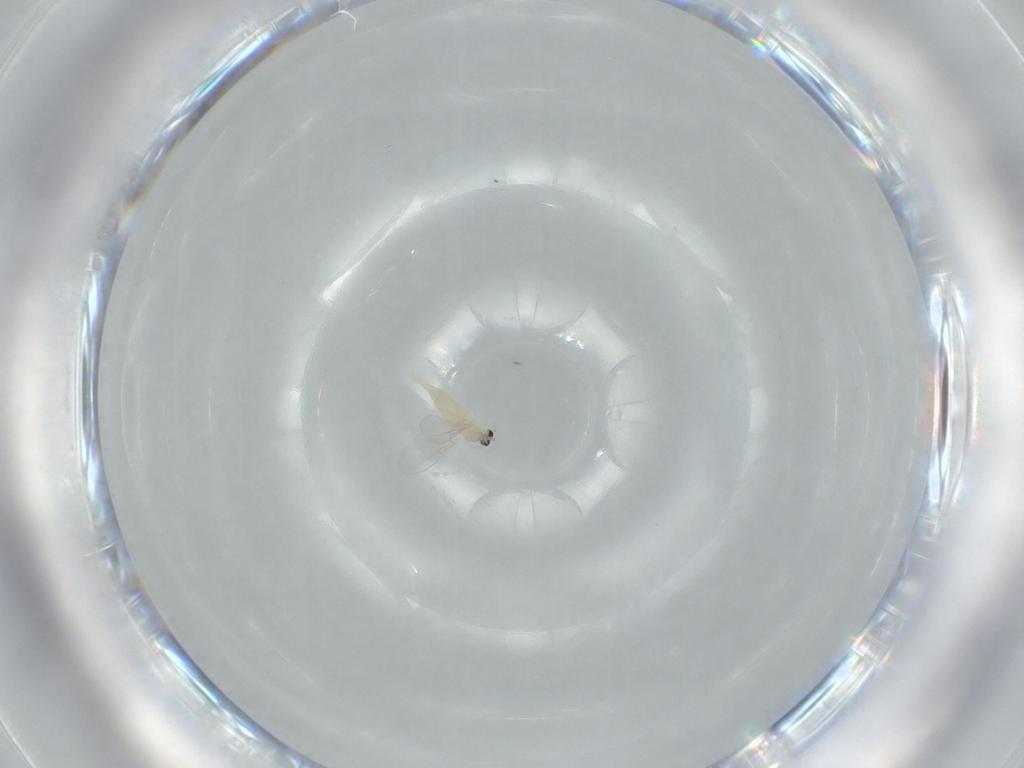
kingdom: Animalia
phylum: Arthropoda
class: Insecta
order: Diptera
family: Cecidomyiidae
